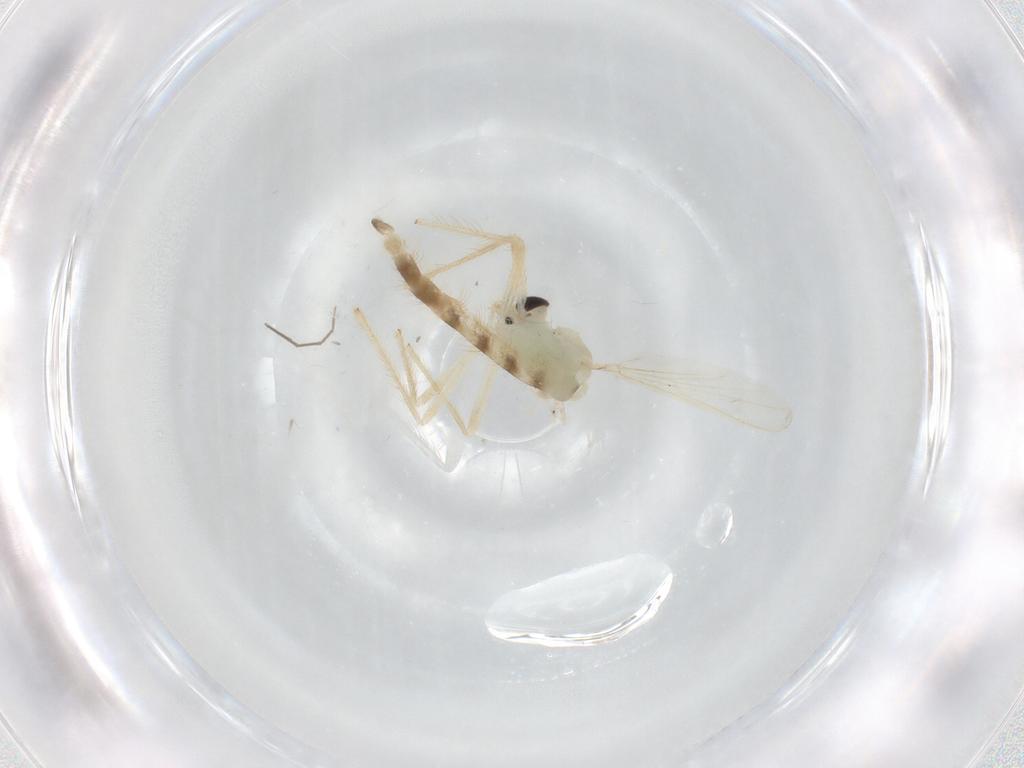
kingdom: Animalia
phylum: Arthropoda
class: Insecta
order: Diptera
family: Chironomidae
